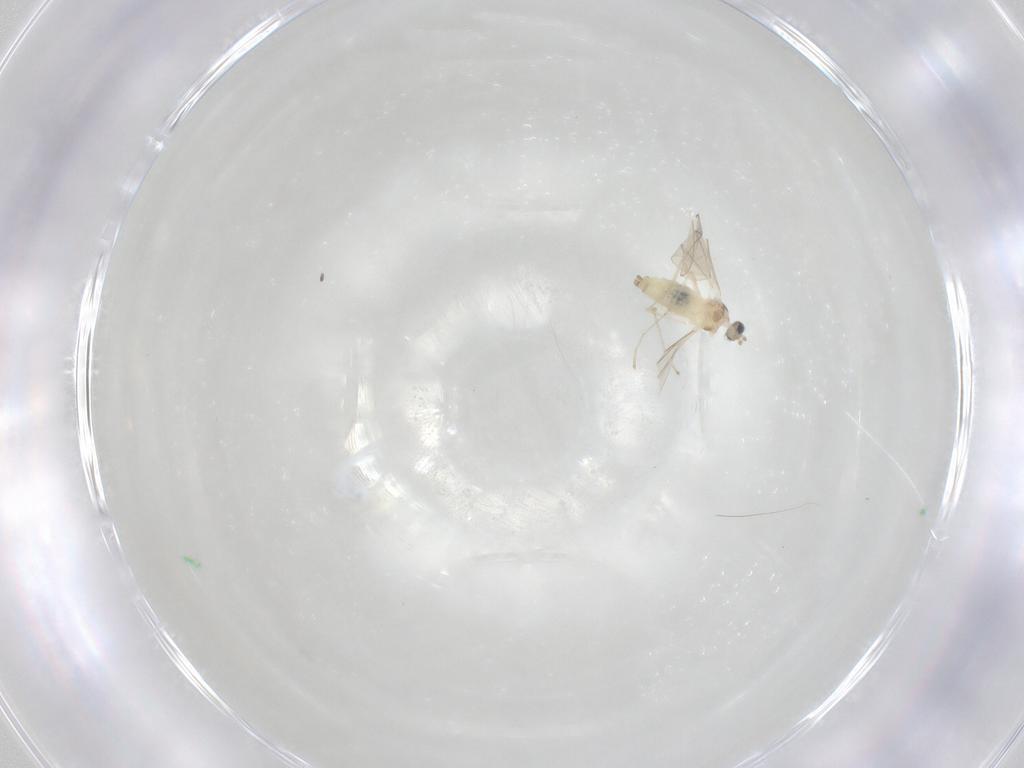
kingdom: Animalia
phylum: Arthropoda
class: Insecta
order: Diptera
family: Cecidomyiidae
